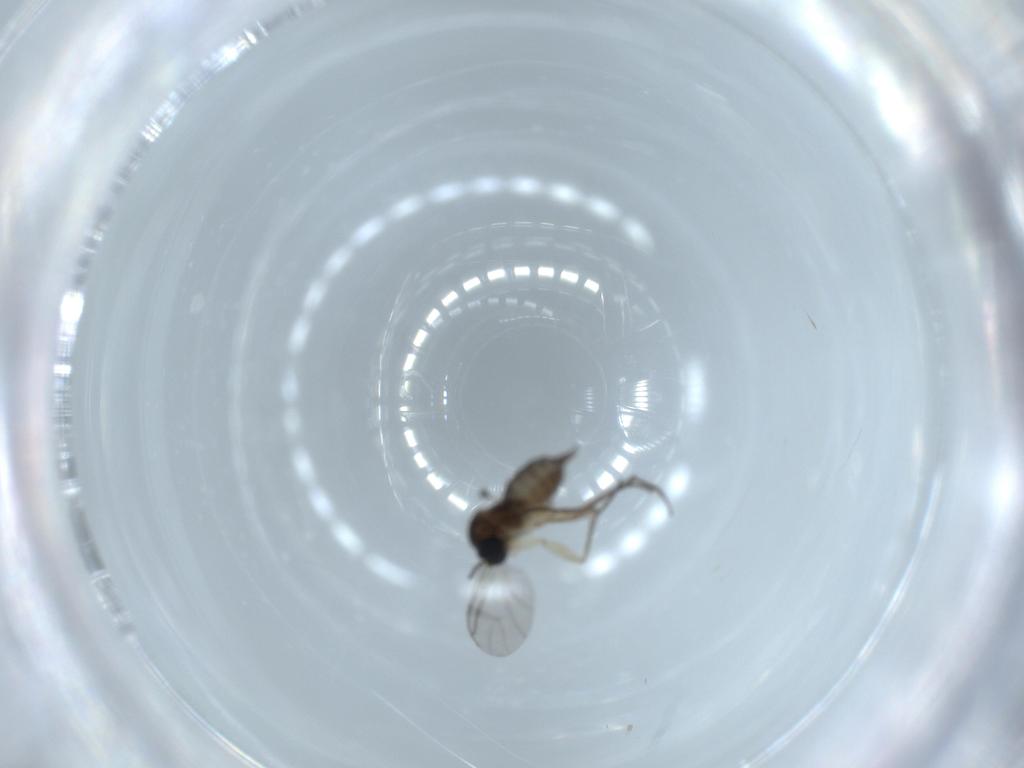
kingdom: Animalia
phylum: Arthropoda
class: Insecta
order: Diptera
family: Sciaridae
